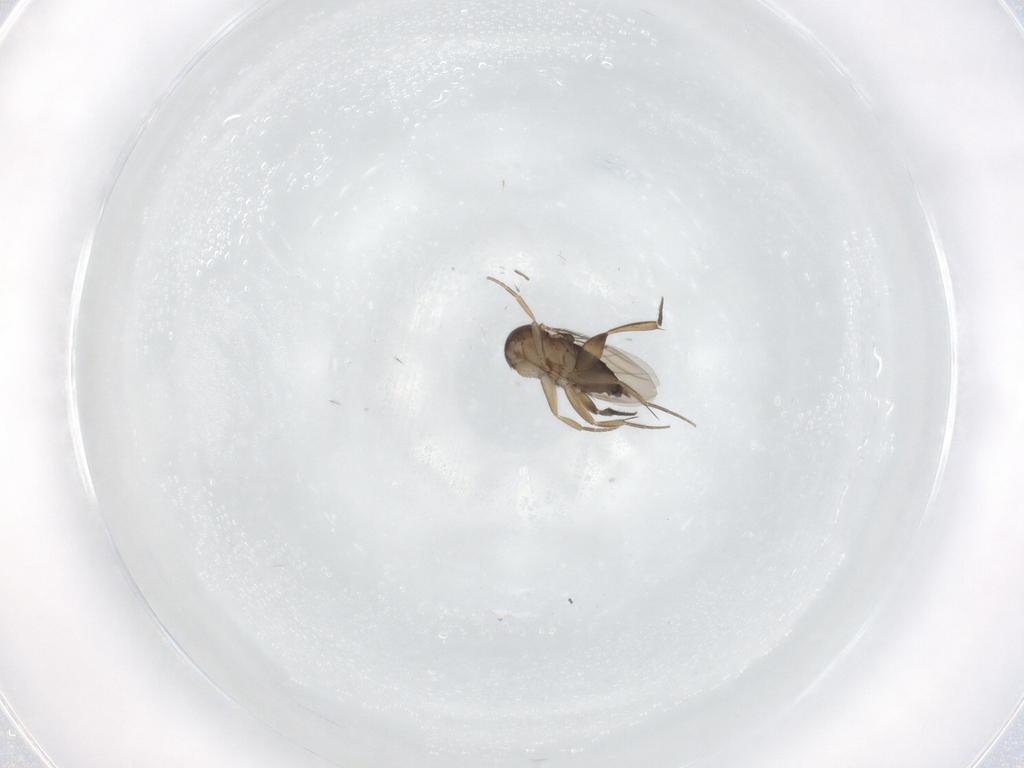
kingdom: Animalia
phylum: Arthropoda
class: Insecta
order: Diptera
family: Phoridae
